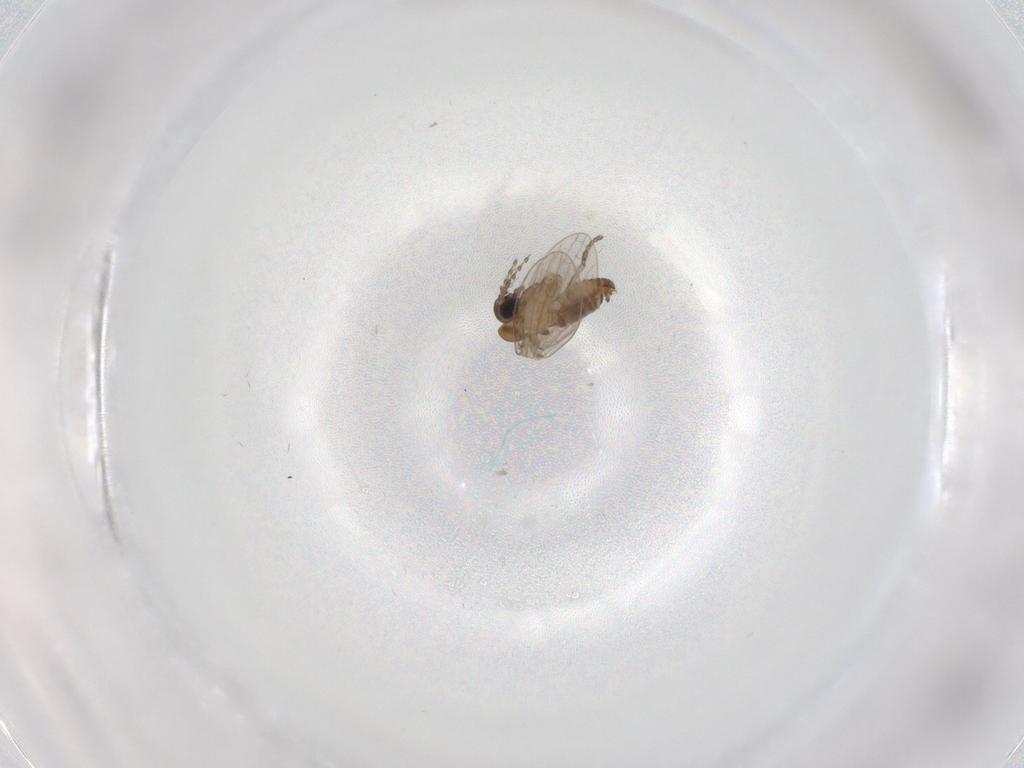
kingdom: Animalia
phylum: Arthropoda
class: Insecta
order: Diptera
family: Psychodidae
